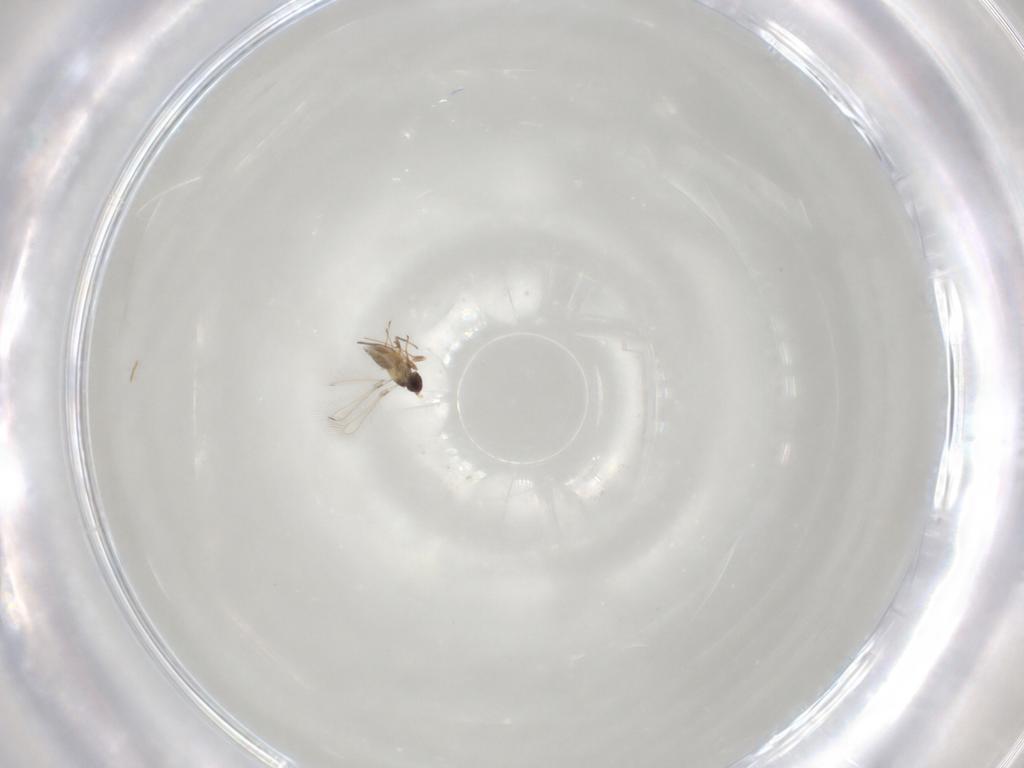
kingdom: Animalia
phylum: Arthropoda
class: Insecta
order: Hymenoptera
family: Mymaridae
